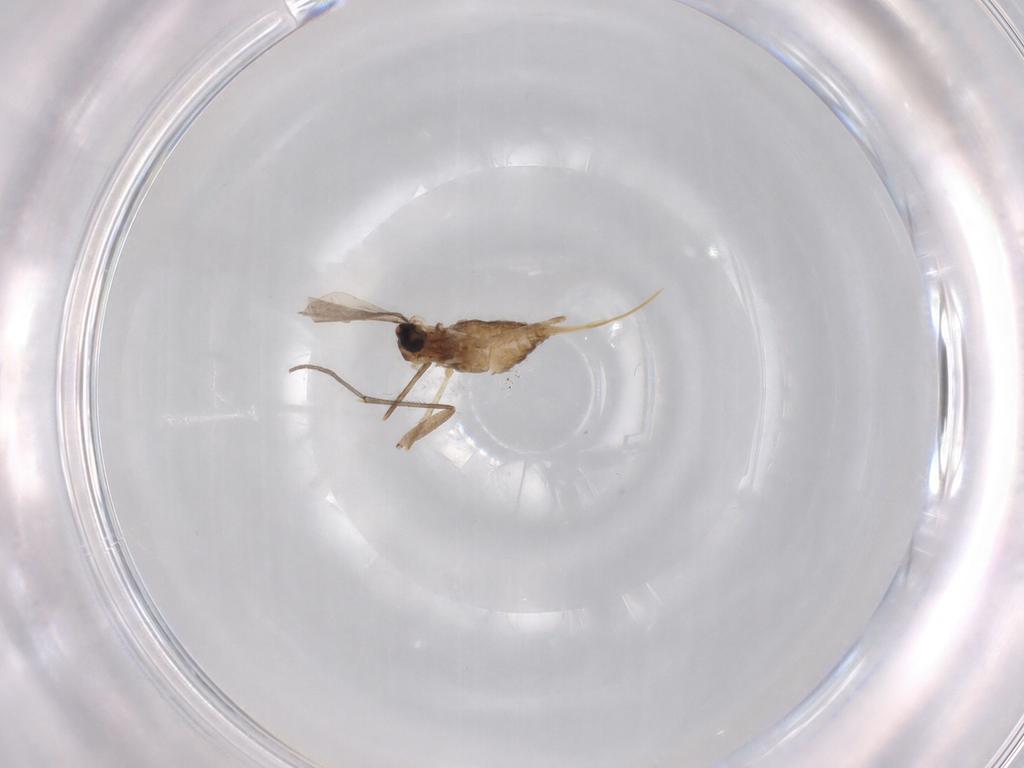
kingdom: Animalia
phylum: Arthropoda
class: Insecta
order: Diptera
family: Cecidomyiidae
